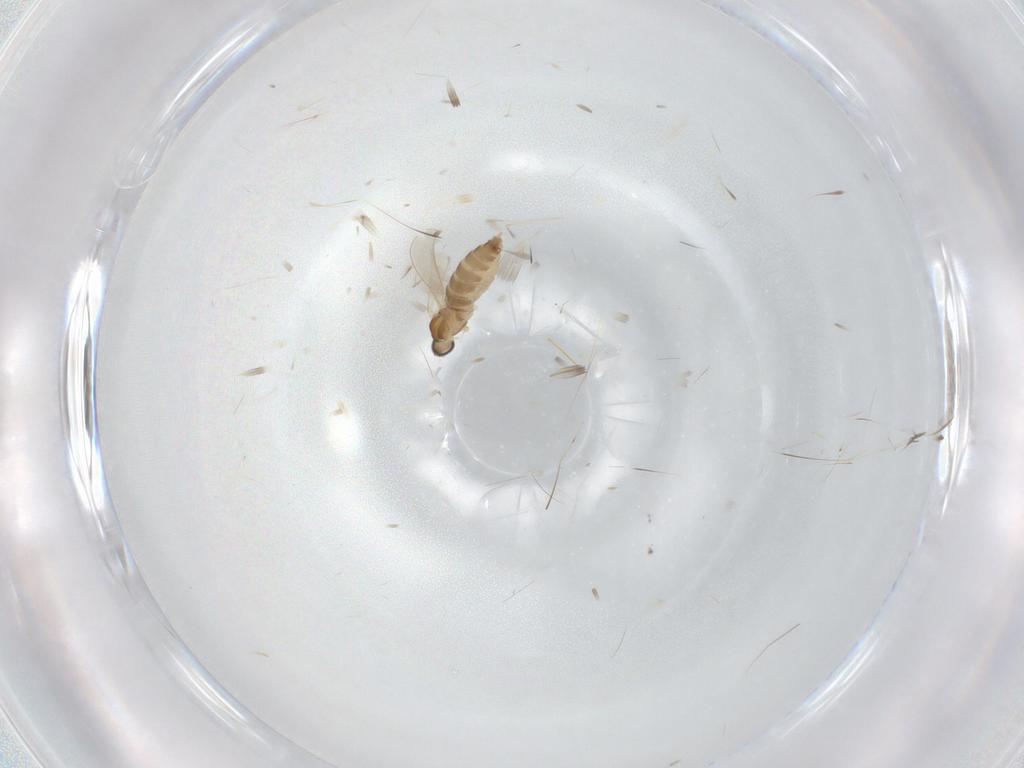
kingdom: Animalia
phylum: Arthropoda
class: Insecta
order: Diptera
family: Cecidomyiidae
